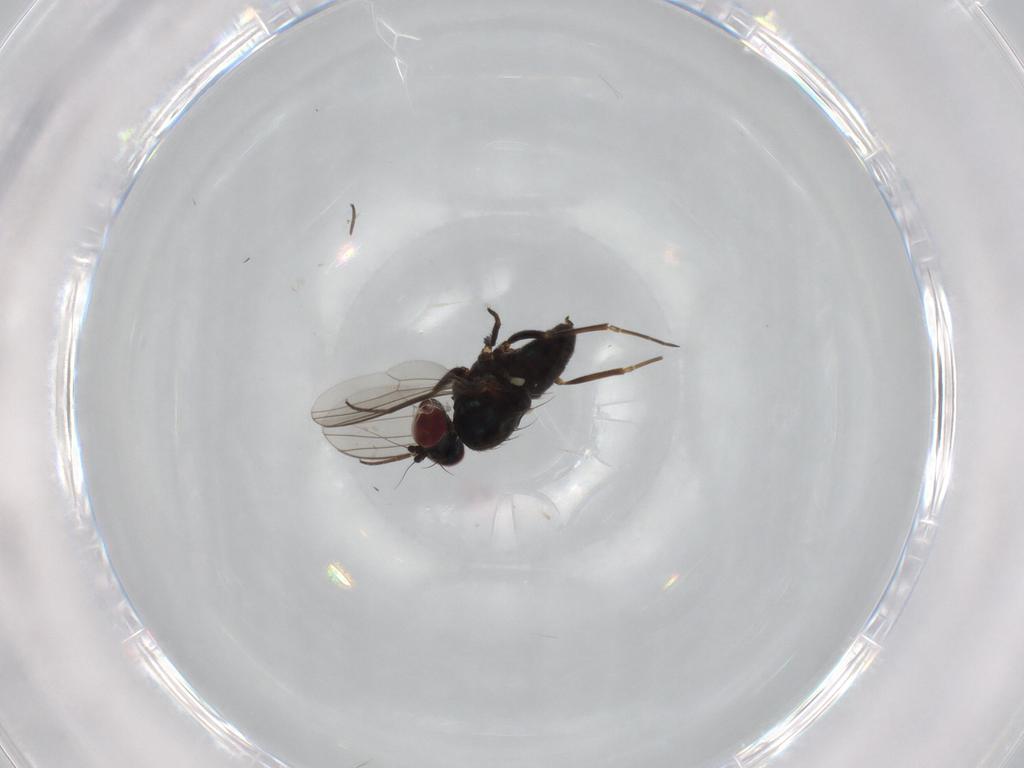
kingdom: Animalia
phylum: Arthropoda
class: Insecta
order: Diptera
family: Dolichopodidae
